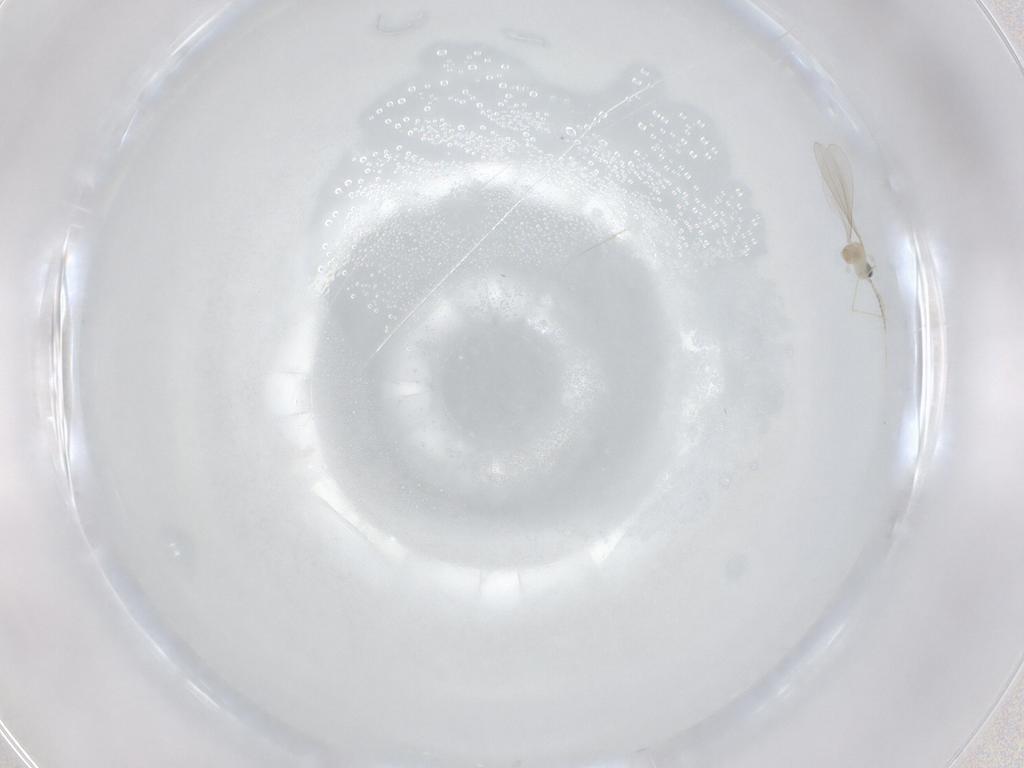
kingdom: Animalia
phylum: Arthropoda
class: Insecta
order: Diptera
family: Cecidomyiidae
